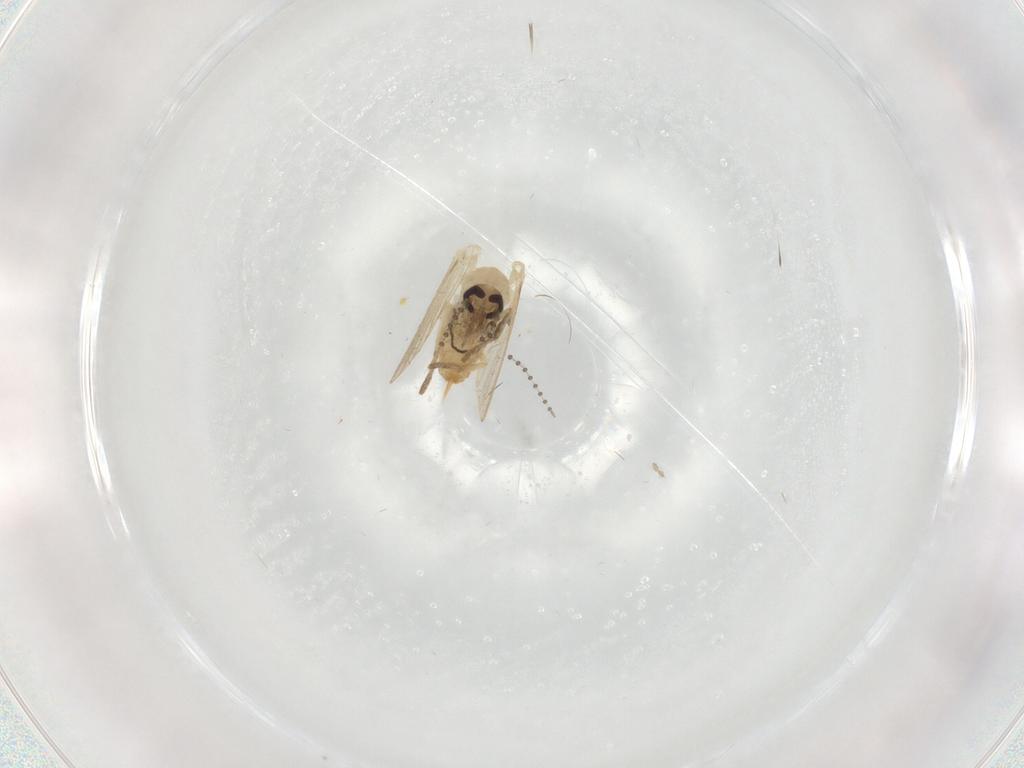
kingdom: Animalia
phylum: Arthropoda
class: Insecta
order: Diptera
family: Psychodidae
